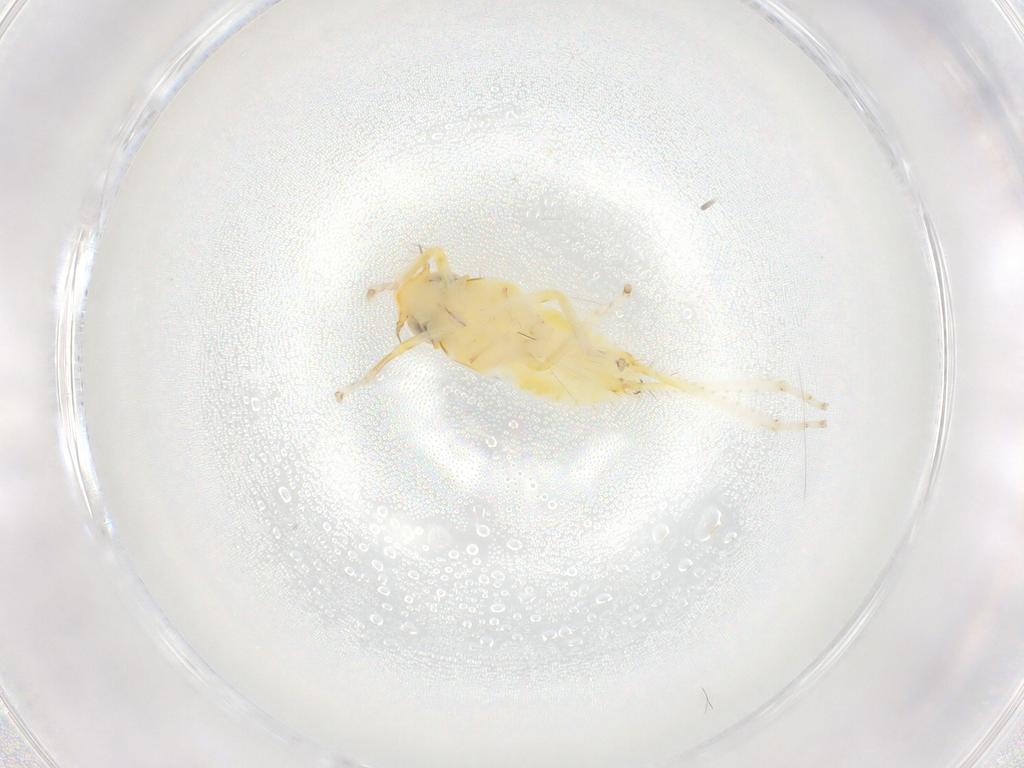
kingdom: Animalia
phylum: Arthropoda
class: Insecta
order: Hemiptera
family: Cicadellidae
